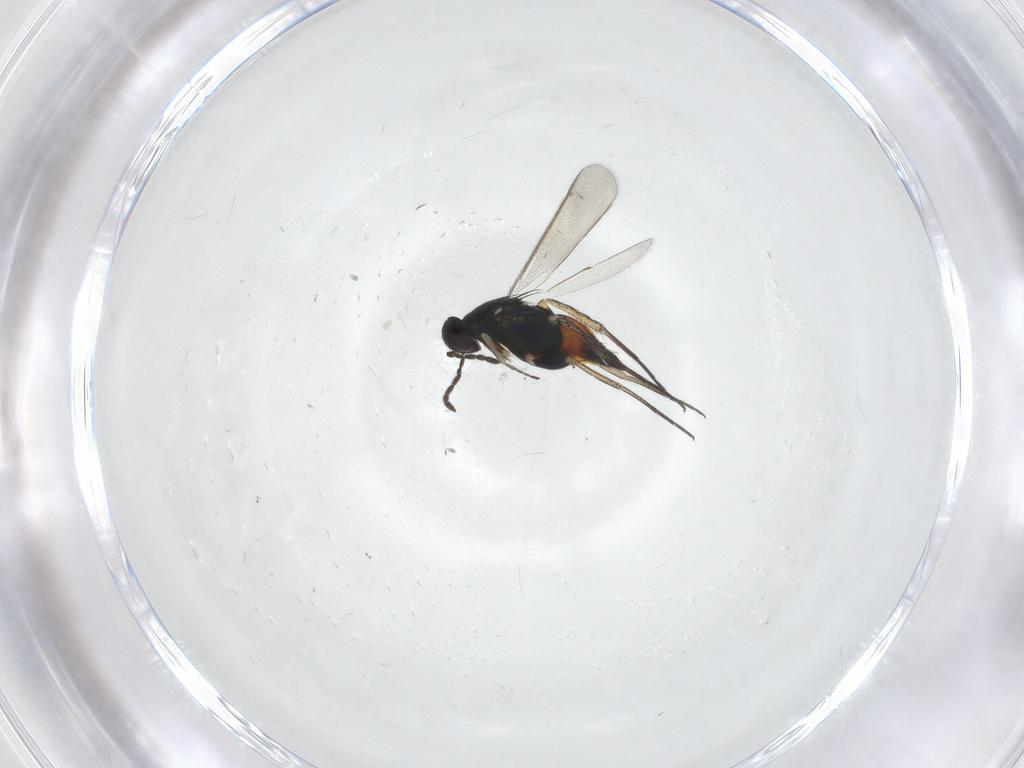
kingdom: Animalia
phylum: Arthropoda
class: Insecta
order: Hymenoptera
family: Eulophidae
